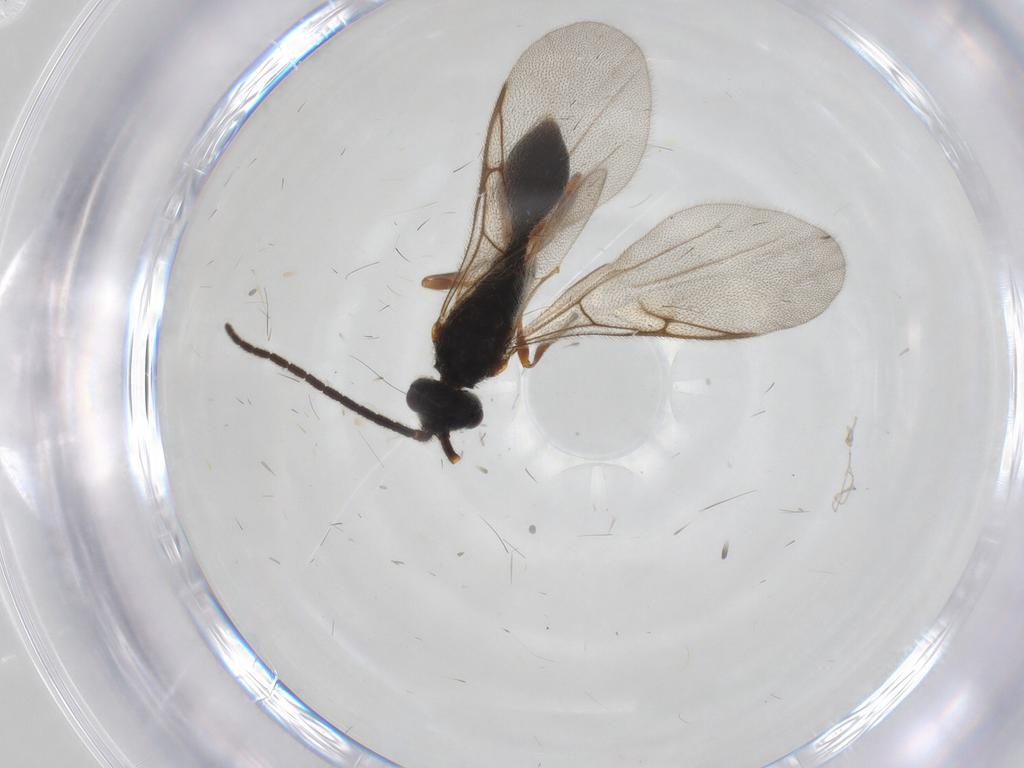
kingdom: Animalia
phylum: Arthropoda
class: Insecta
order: Hymenoptera
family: Diapriidae
